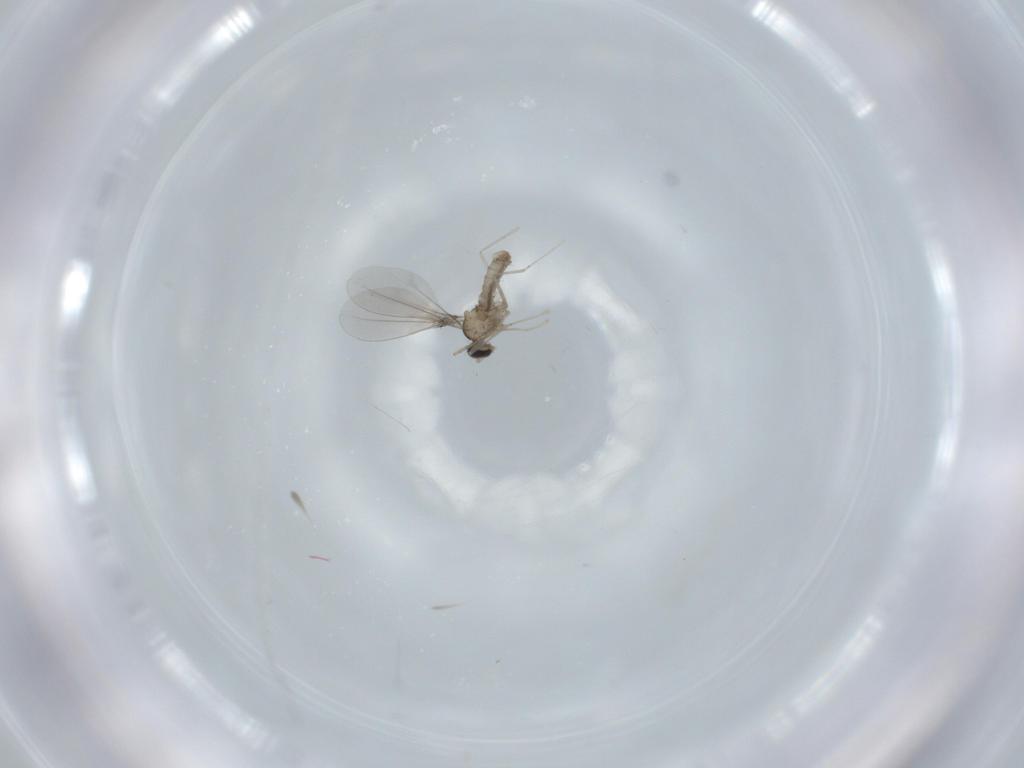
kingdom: Animalia
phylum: Arthropoda
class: Insecta
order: Diptera
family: Cecidomyiidae
